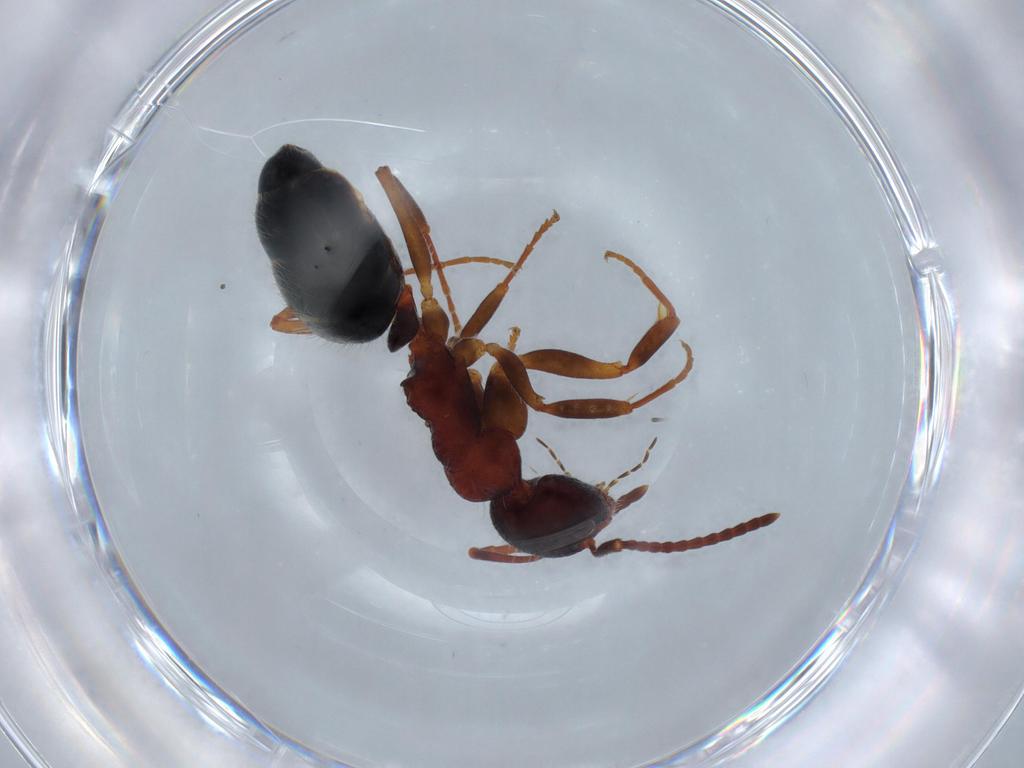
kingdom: Animalia
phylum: Arthropoda
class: Insecta
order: Hymenoptera
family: Formicidae
